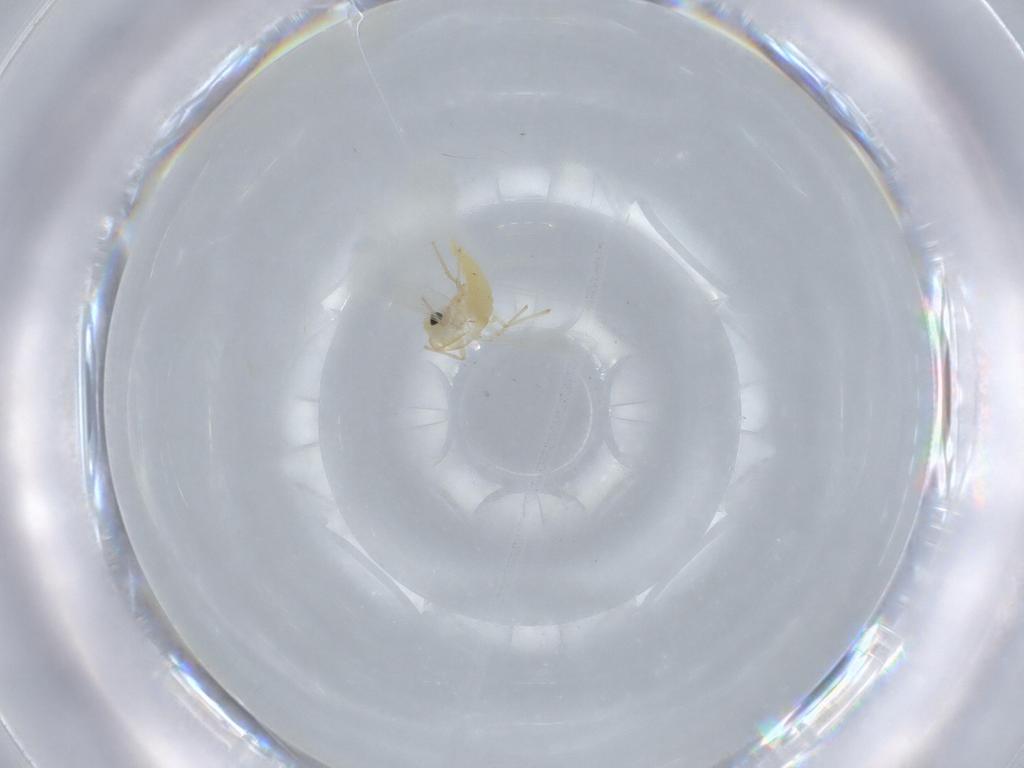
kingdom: Animalia
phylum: Arthropoda
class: Insecta
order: Diptera
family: Chironomidae
